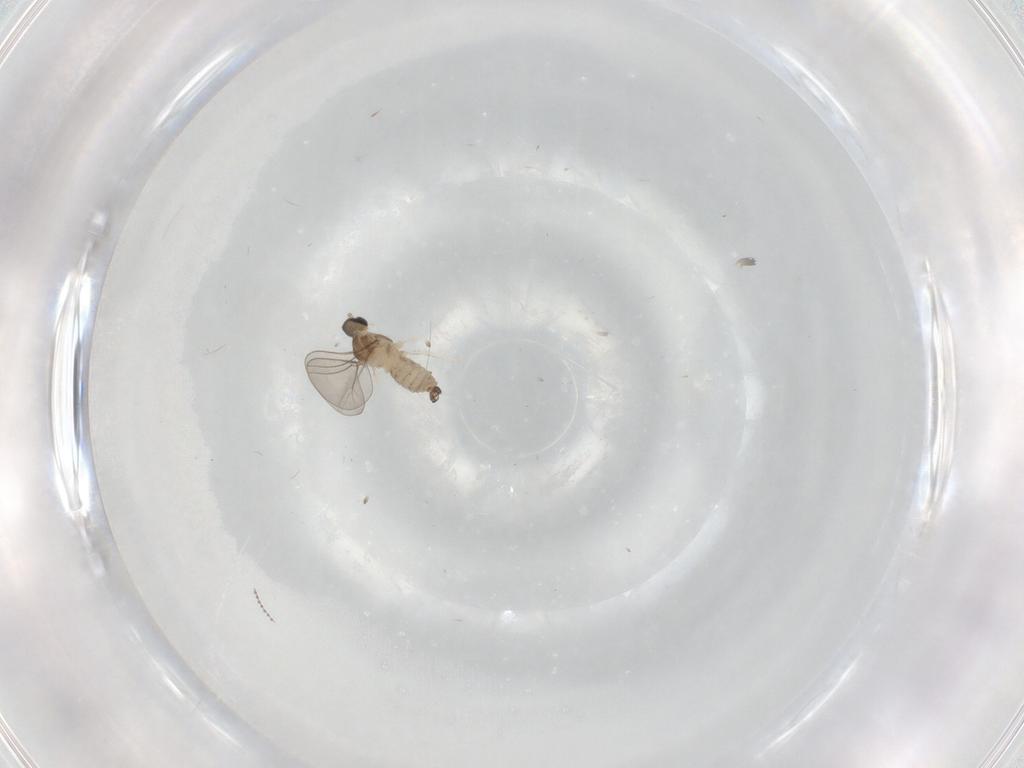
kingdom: Animalia
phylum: Arthropoda
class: Insecta
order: Diptera
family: Cecidomyiidae
